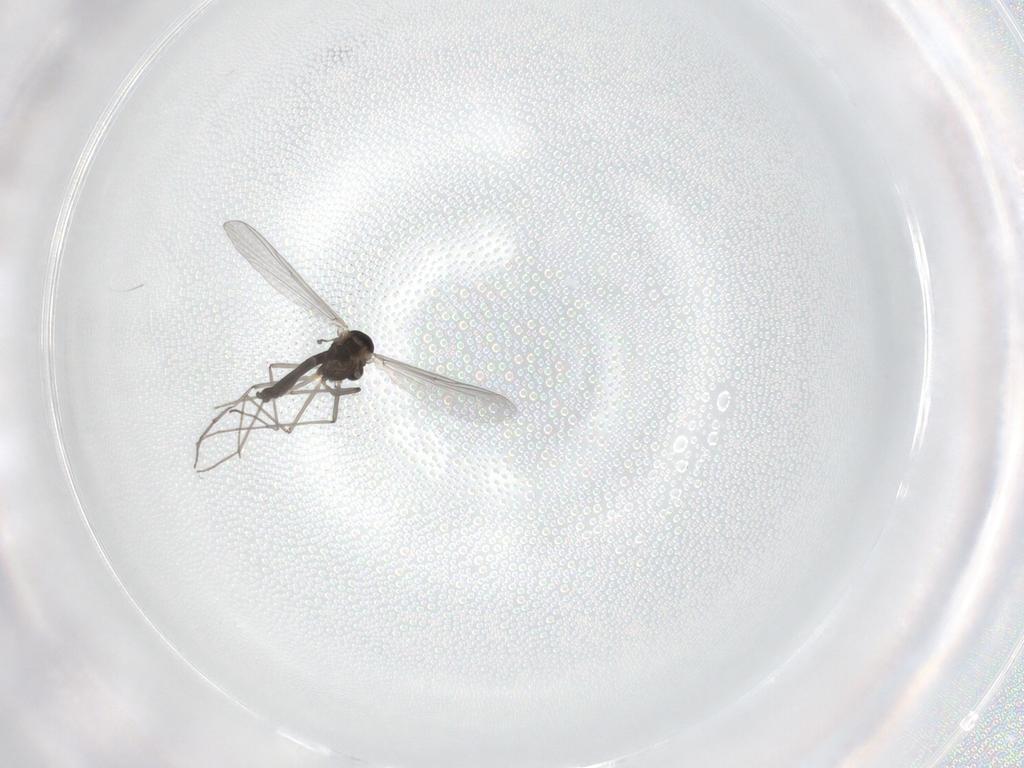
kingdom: Animalia
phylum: Arthropoda
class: Insecta
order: Diptera
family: Chironomidae
